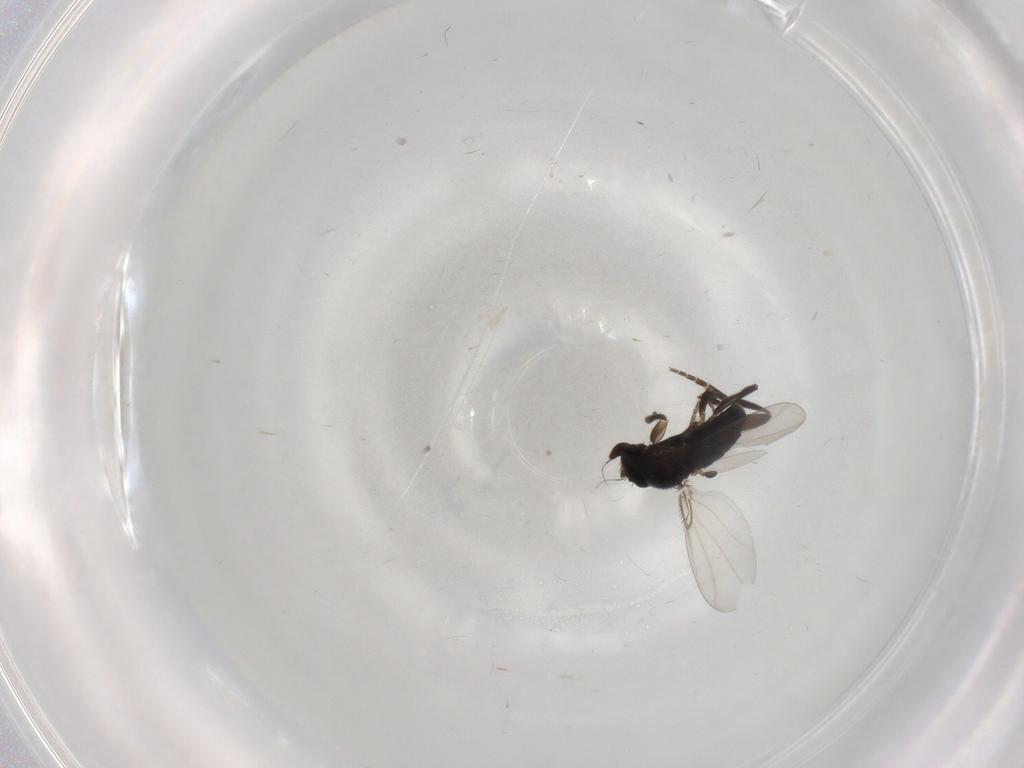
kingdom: Animalia
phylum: Arthropoda
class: Insecta
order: Diptera
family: Phoridae
